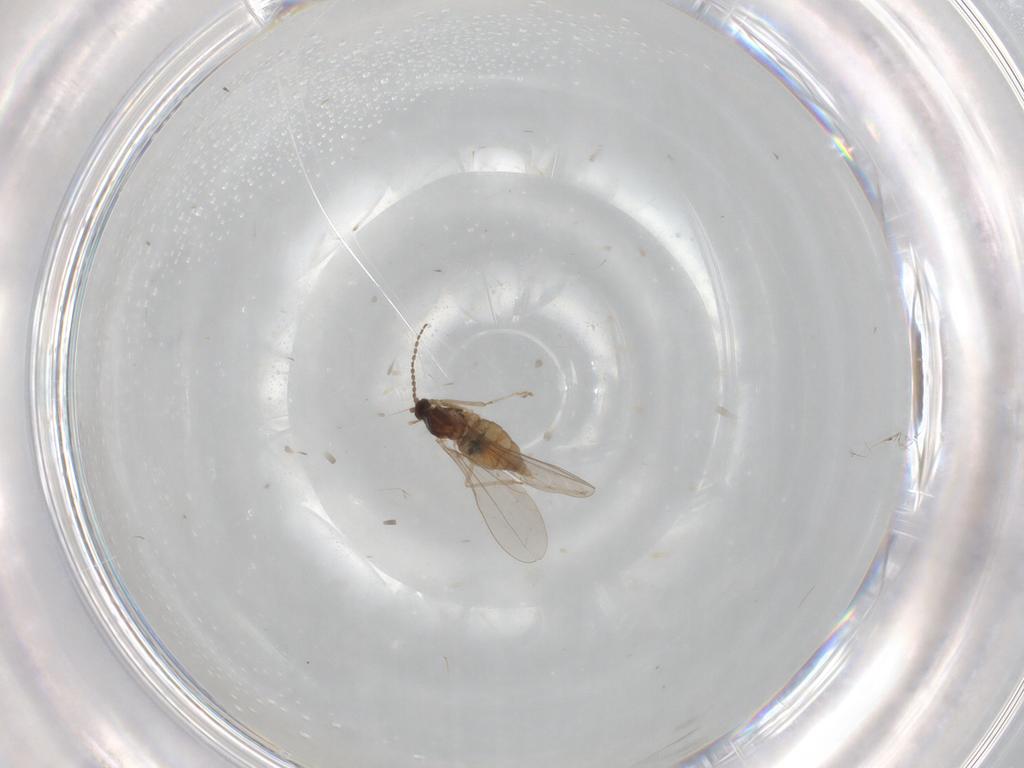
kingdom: Animalia
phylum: Arthropoda
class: Insecta
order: Diptera
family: Cecidomyiidae
